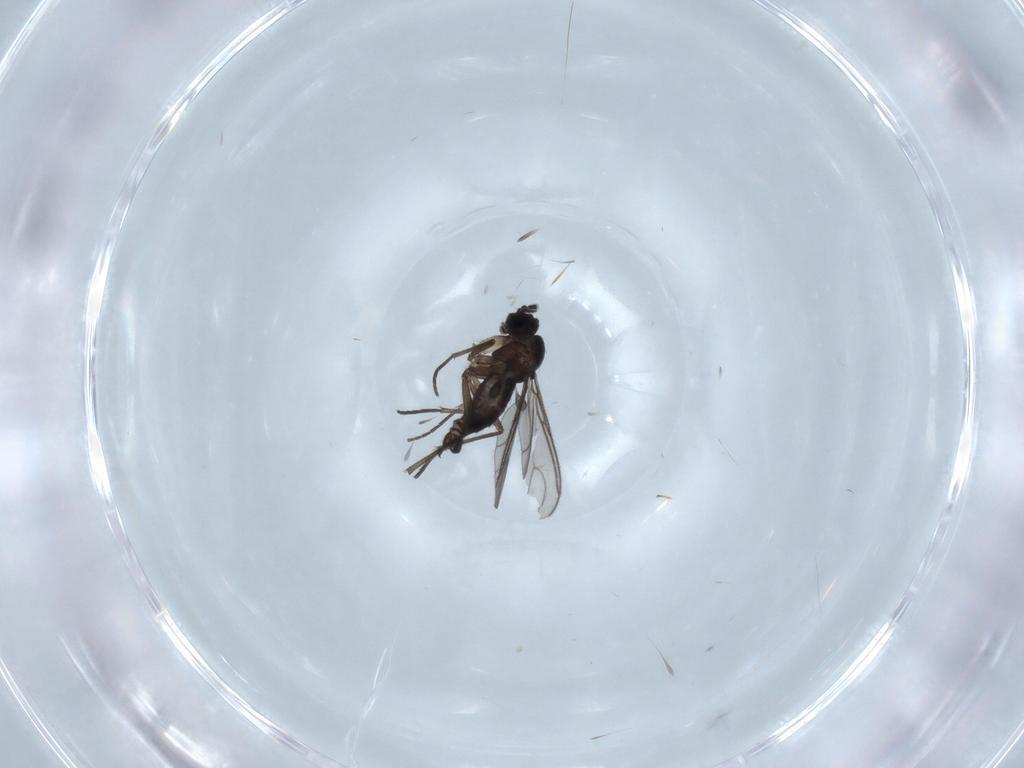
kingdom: Animalia
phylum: Arthropoda
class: Insecta
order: Diptera
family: Sciaridae
